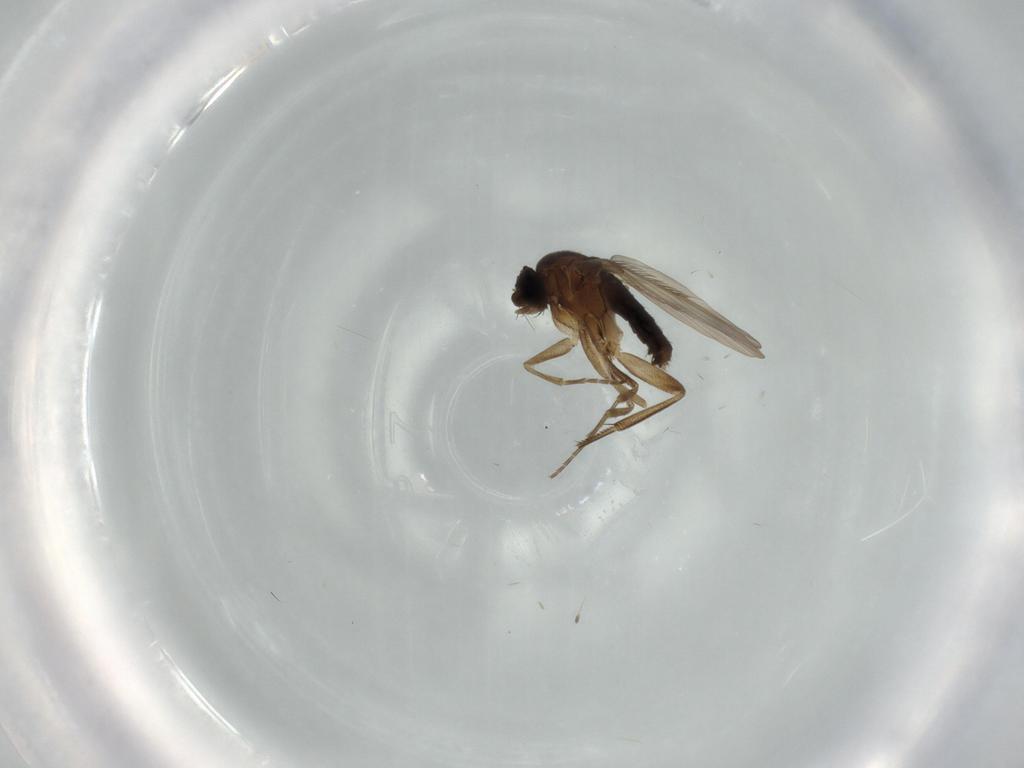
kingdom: Animalia
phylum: Arthropoda
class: Insecta
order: Diptera
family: Phoridae
